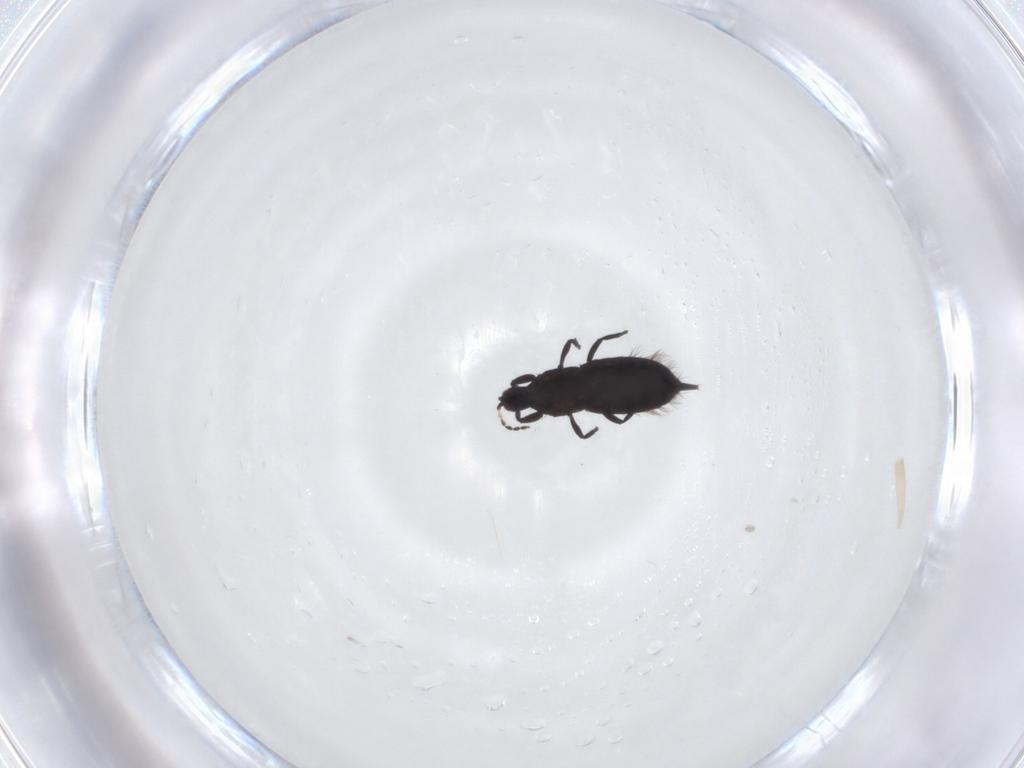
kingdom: Animalia
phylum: Arthropoda
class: Insecta
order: Thysanoptera
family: Phlaeothripidae
